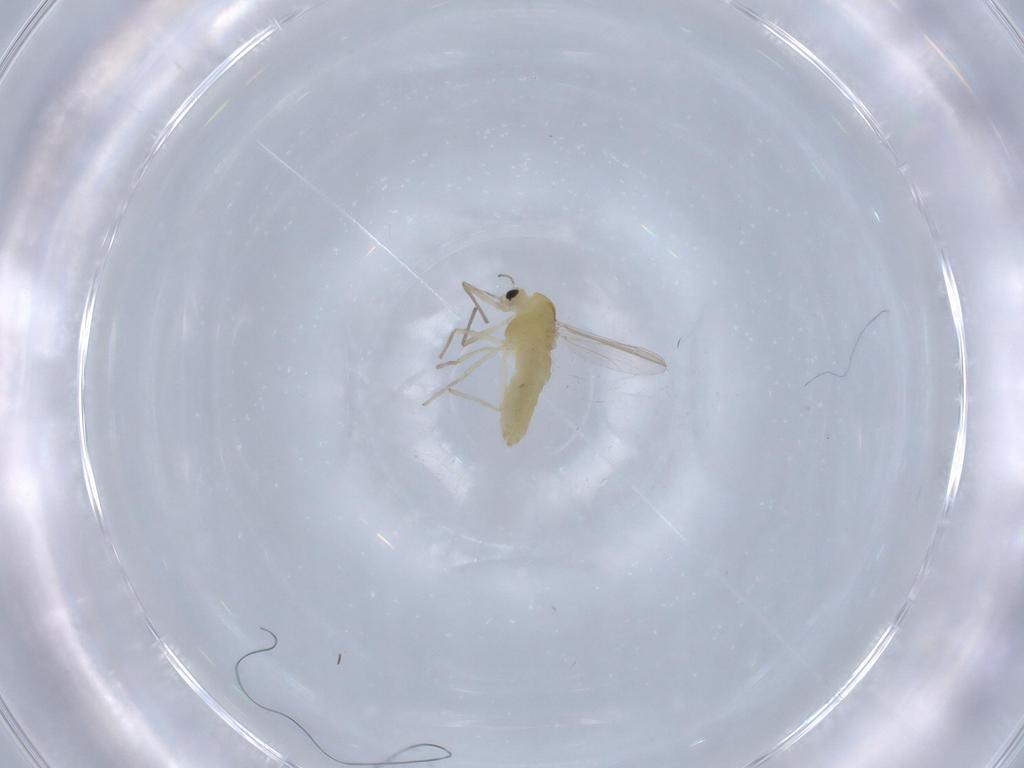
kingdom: Animalia
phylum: Arthropoda
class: Insecta
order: Diptera
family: Chironomidae
